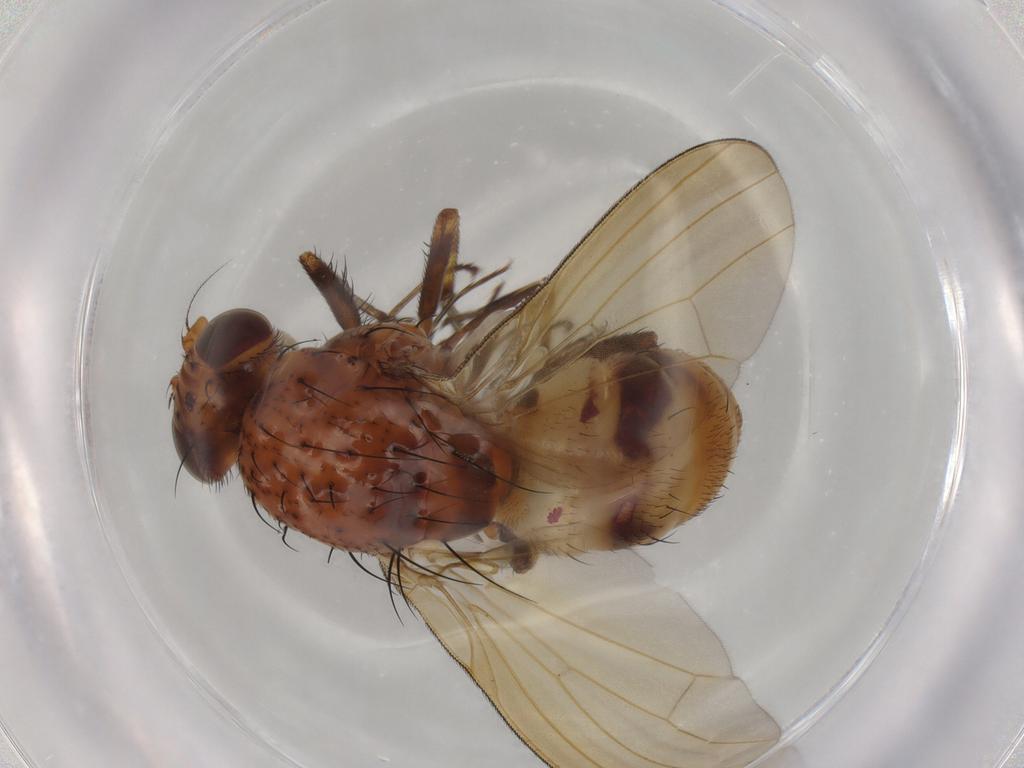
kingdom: Animalia
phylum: Arthropoda
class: Insecta
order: Diptera
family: Lauxaniidae
